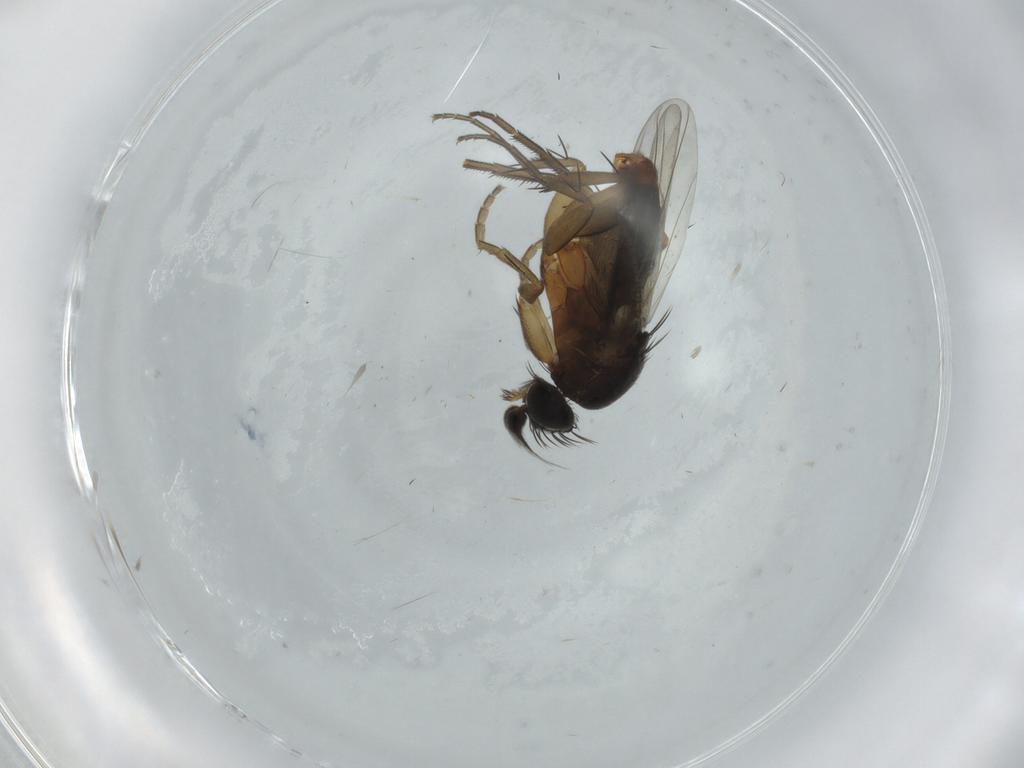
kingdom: Animalia
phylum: Arthropoda
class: Insecta
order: Diptera
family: Phoridae
